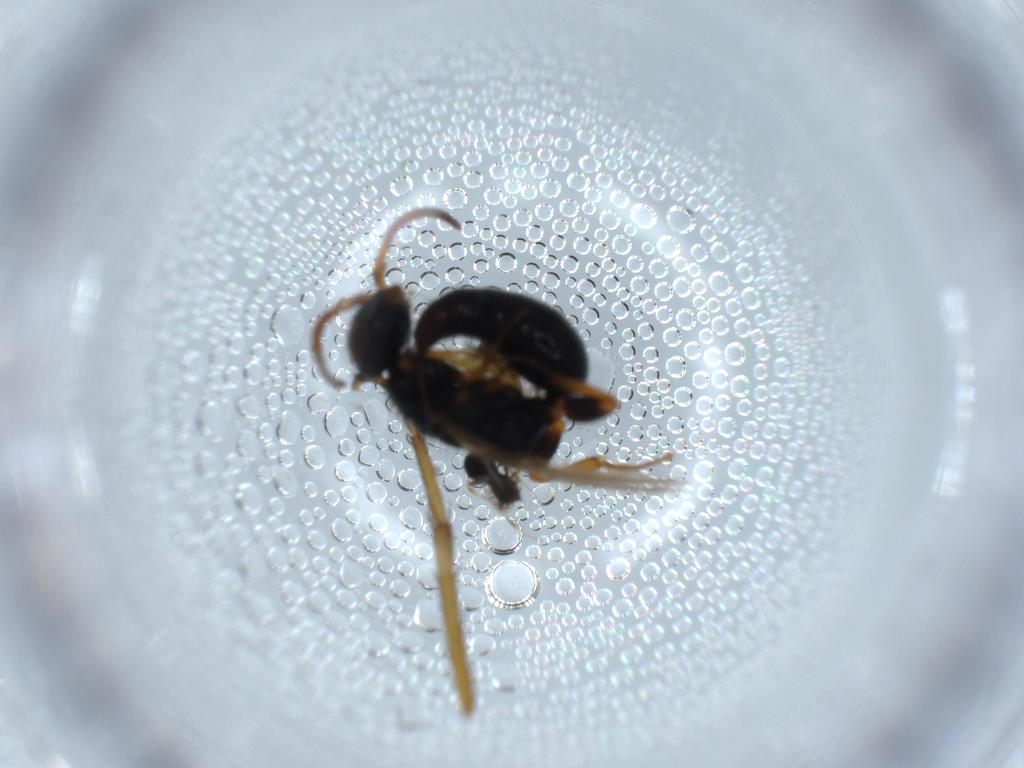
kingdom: Animalia
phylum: Arthropoda
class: Insecta
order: Hymenoptera
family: Bethylidae
